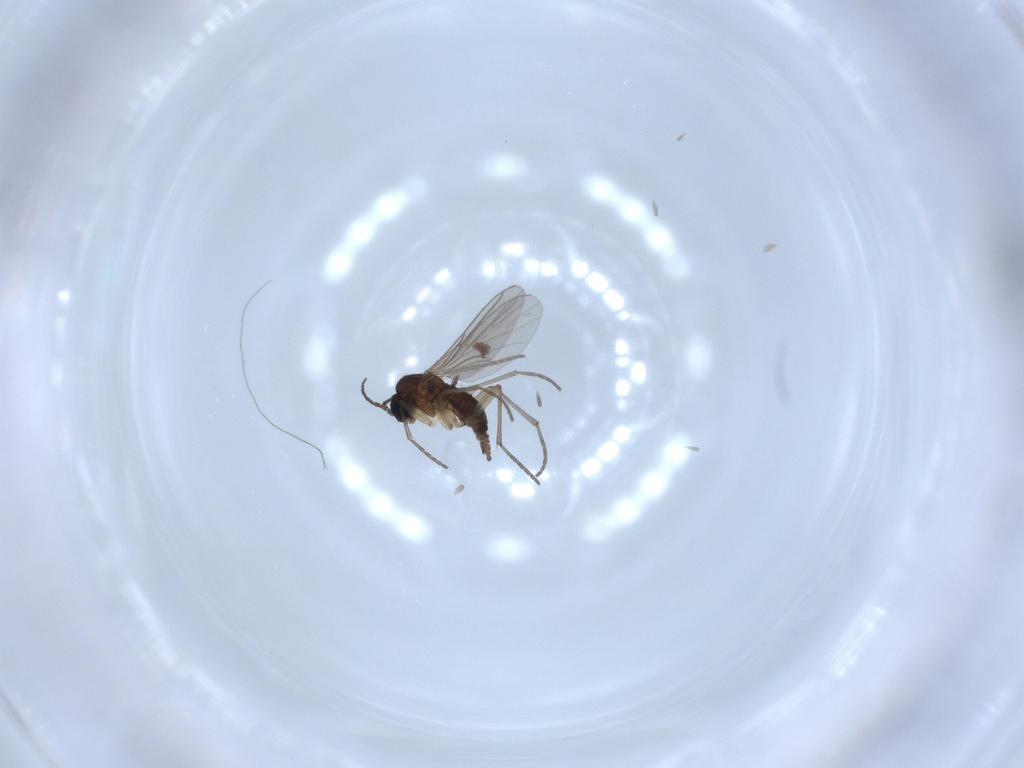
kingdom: Animalia
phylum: Arthropoda
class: Insecta
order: Diptera
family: Sciaridae
